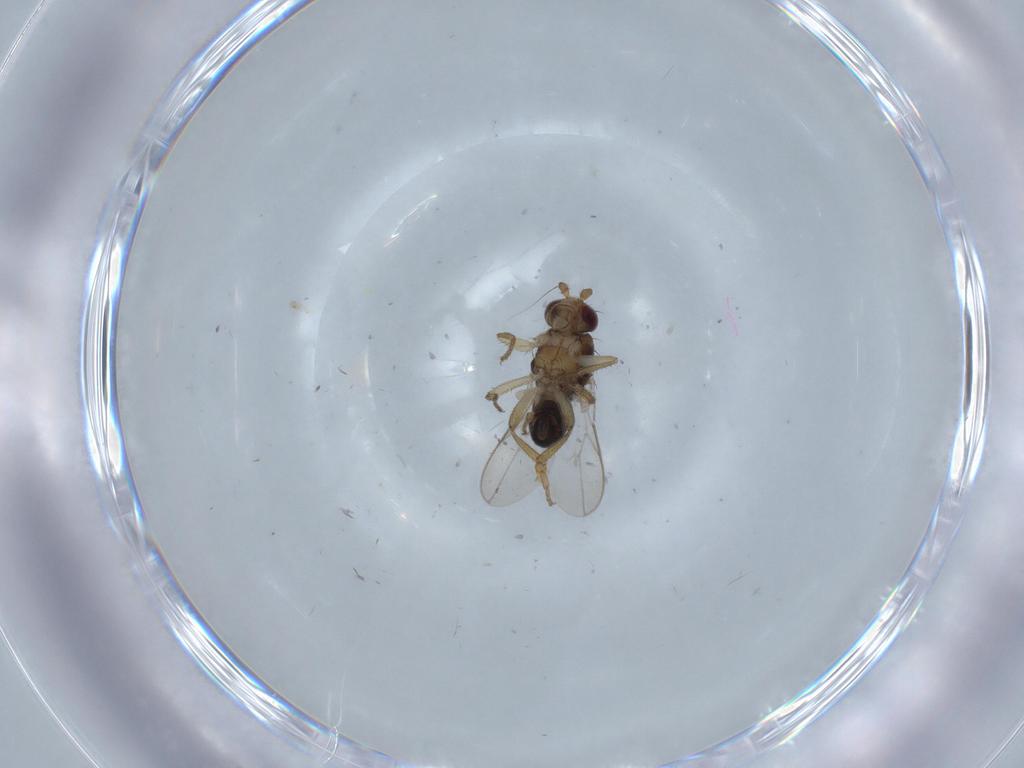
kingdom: Animalia
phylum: Arthropoda
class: Insecta
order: Diptera
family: Sphaeroceridae
